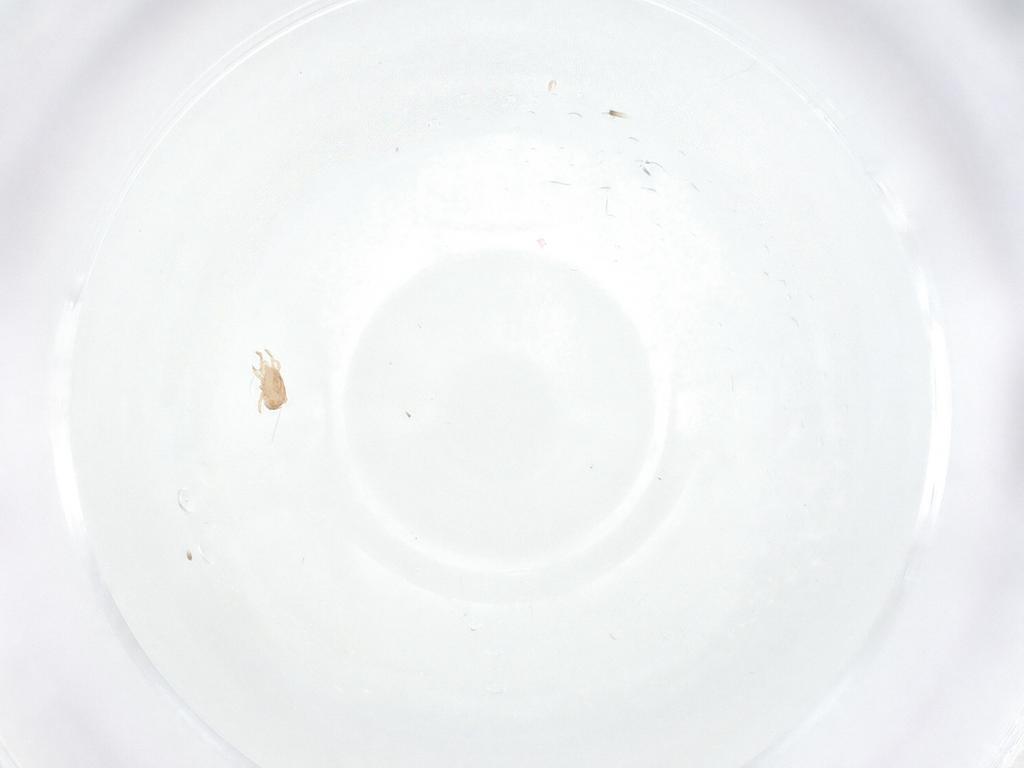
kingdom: Animalia
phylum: Arthropoda
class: Arachnida
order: Mesostigmata
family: Ascidae
